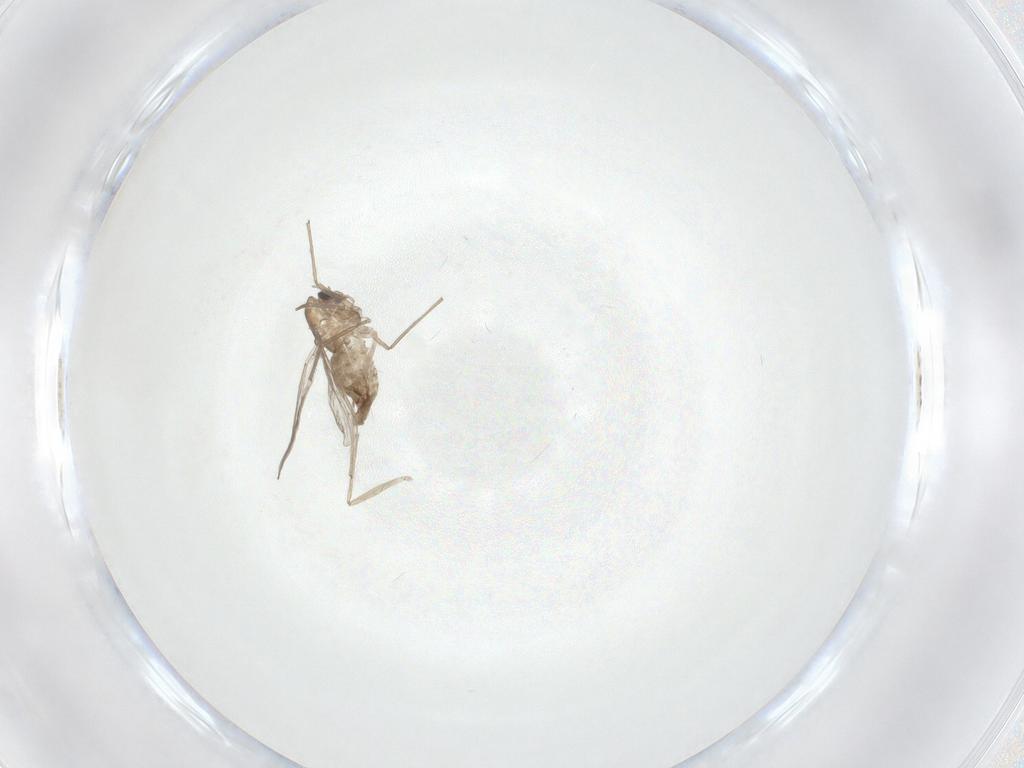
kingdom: Animalia
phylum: Arthropoda
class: Insecta
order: Diptera
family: Chironomidae
